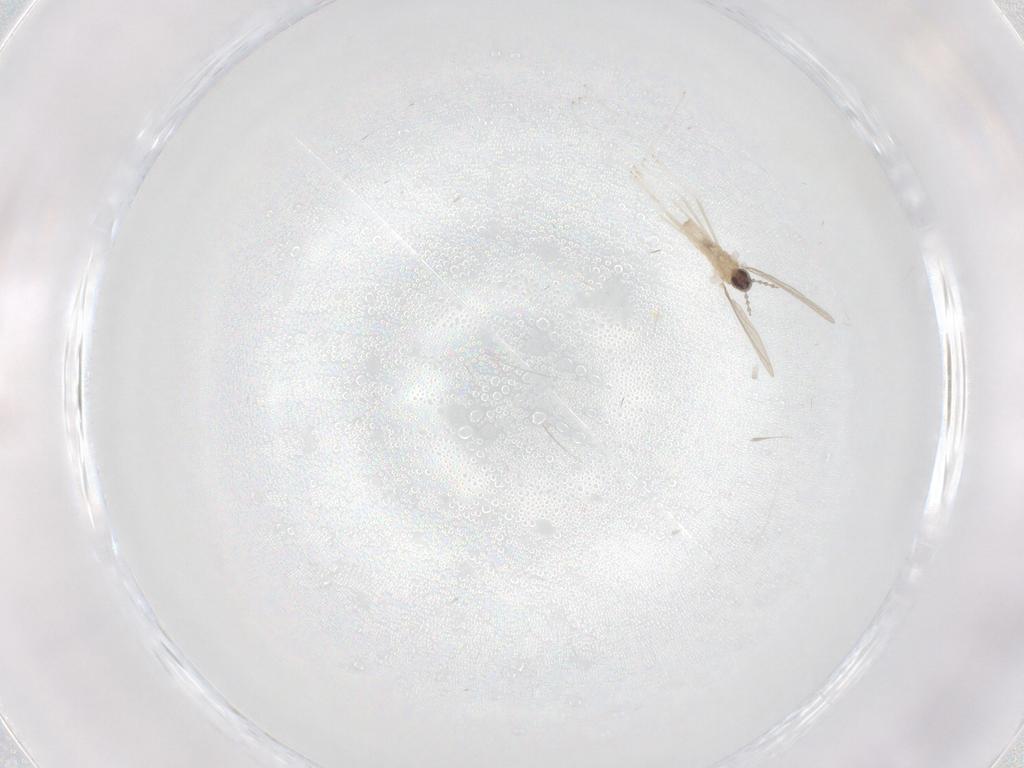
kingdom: Animalia
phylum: Arthropoda
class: Insecta
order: Diptera
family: Cecidomyiidae
